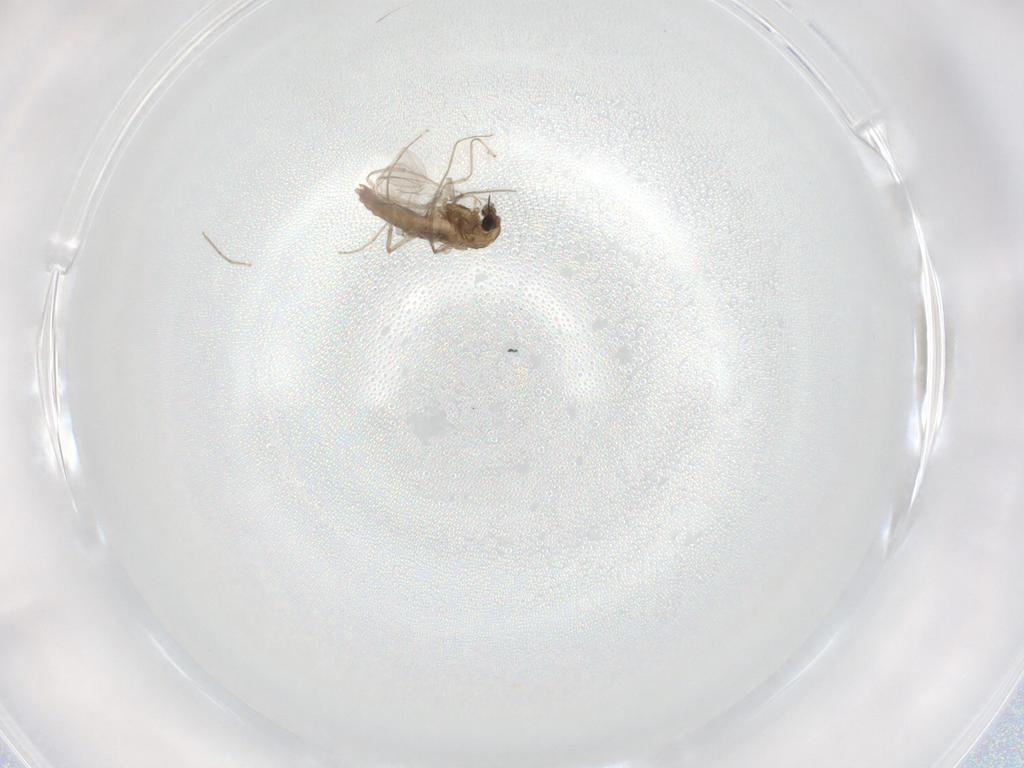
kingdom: Animalia
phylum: Arthropoda
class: Insecta
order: Diptera
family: Chironomidae
